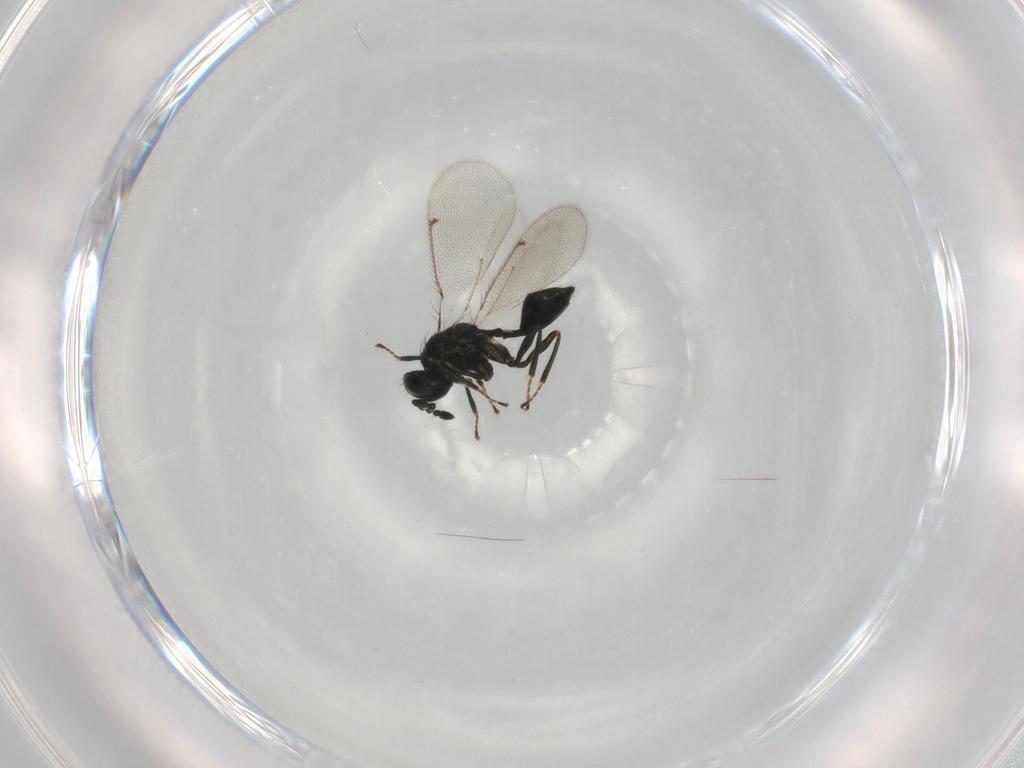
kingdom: Animalia
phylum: Arthropoda
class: Insecta
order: Hymenoptera
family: Eulophidae
